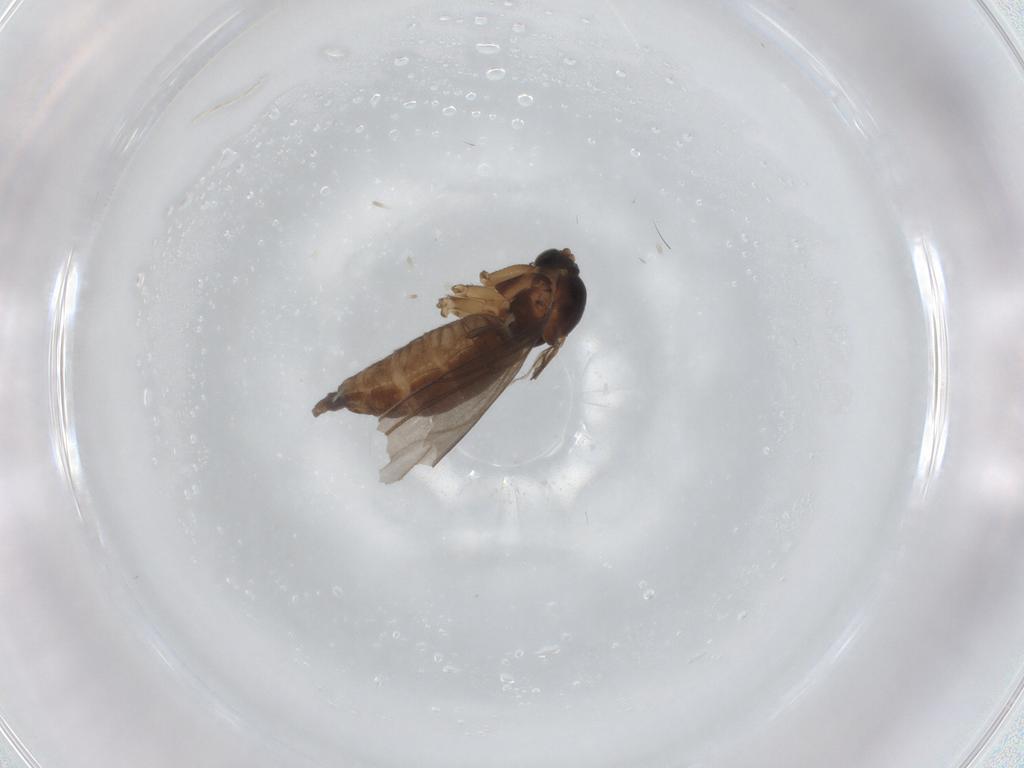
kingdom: Animalia
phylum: Arthropoda
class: Insecta
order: Diptera
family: Sciaridae
